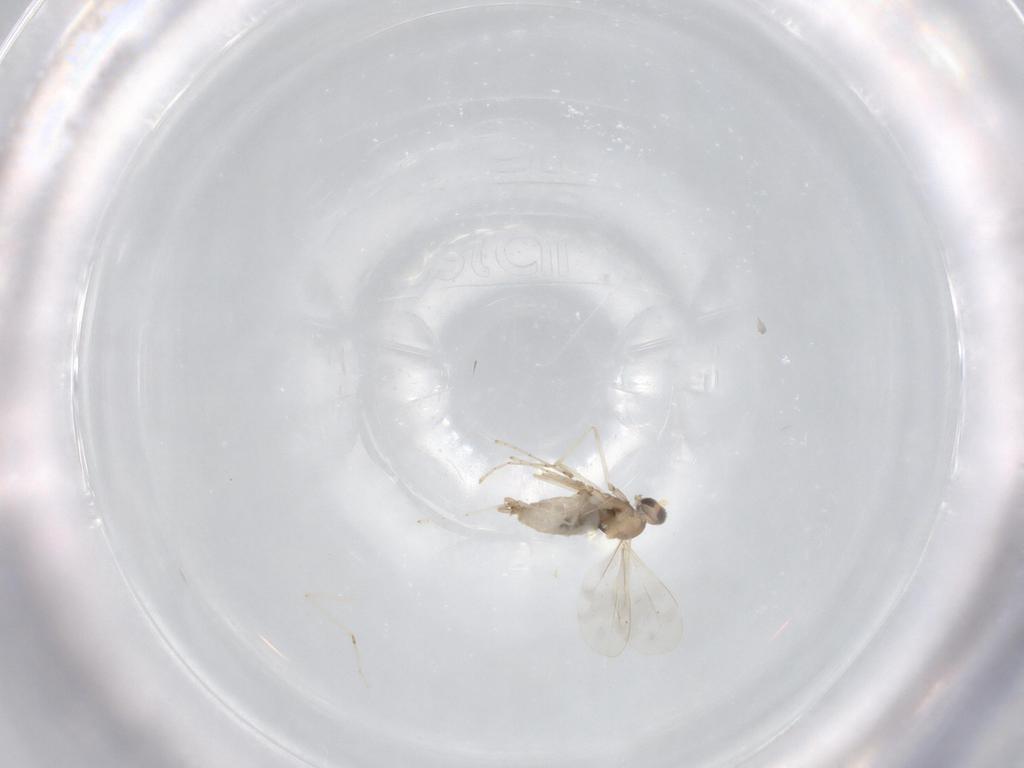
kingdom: Animalia
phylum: Arthropoda
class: Insecta
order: Diptera
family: Cecidomyiidae
